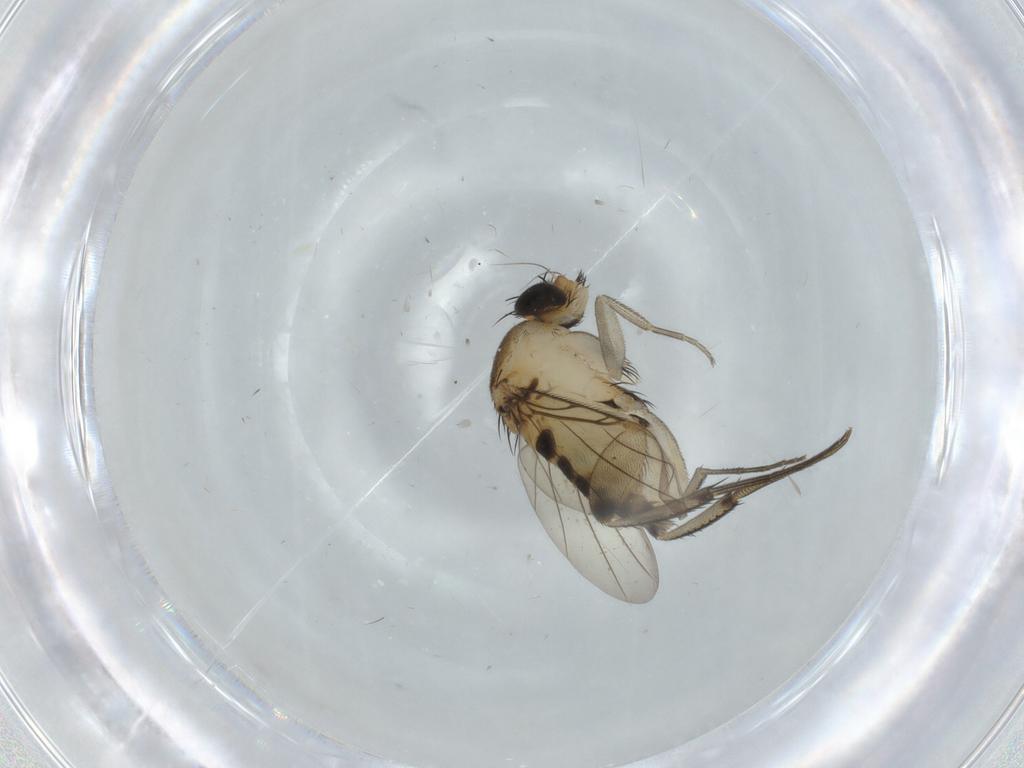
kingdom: Animalia
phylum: Arthropoda
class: Insecta
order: Diptera
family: Phoridae
